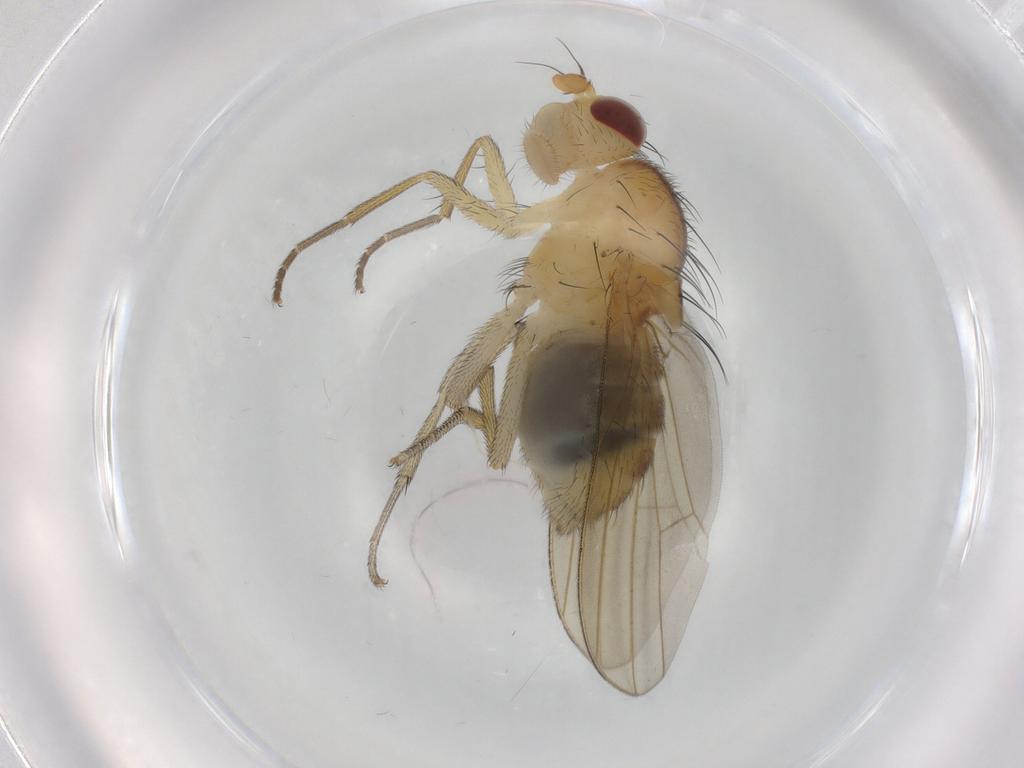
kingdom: Animalia
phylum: Arthropoda
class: Insecta
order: Diptera
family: Cecidomyiidae
